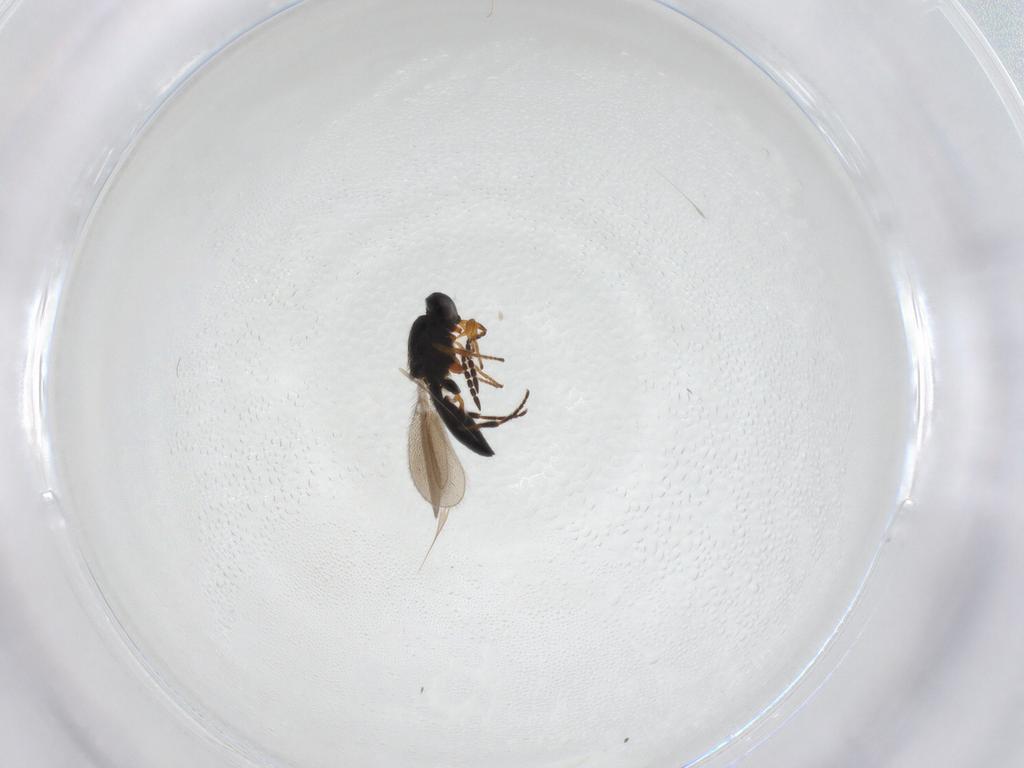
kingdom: Animalia
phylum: Arthropoda
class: Insecta
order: Hymenoptera
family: Platygastridae
